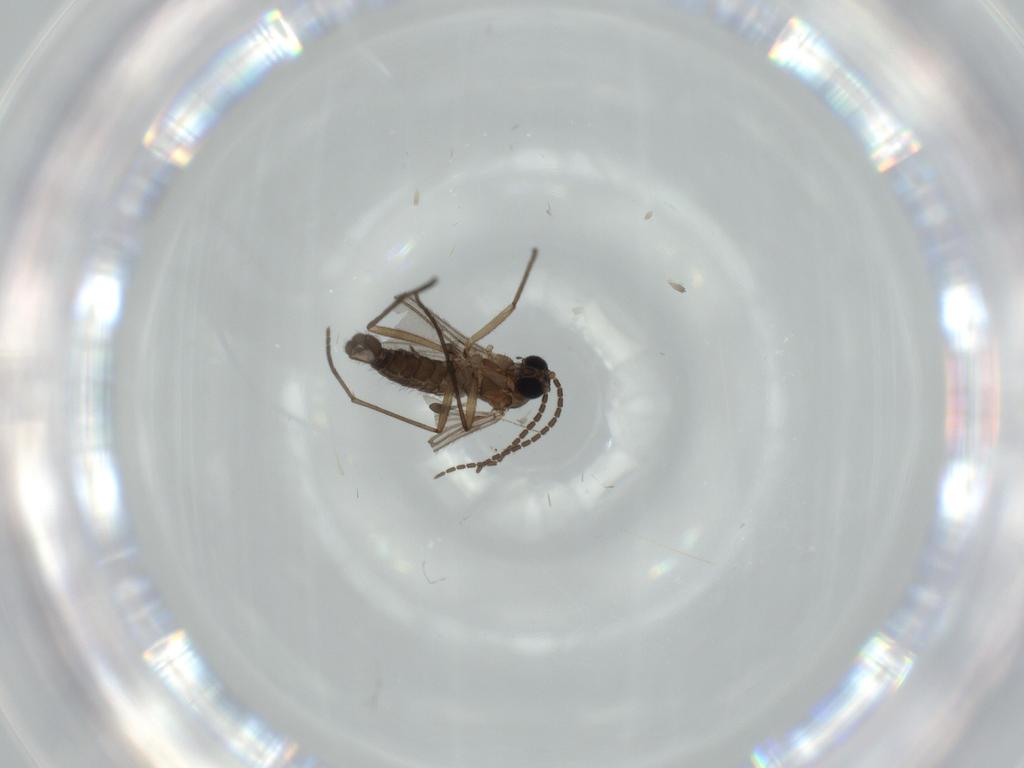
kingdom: Animalia
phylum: Arthropoda
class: Insecta
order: Diptera
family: Sciaridae
